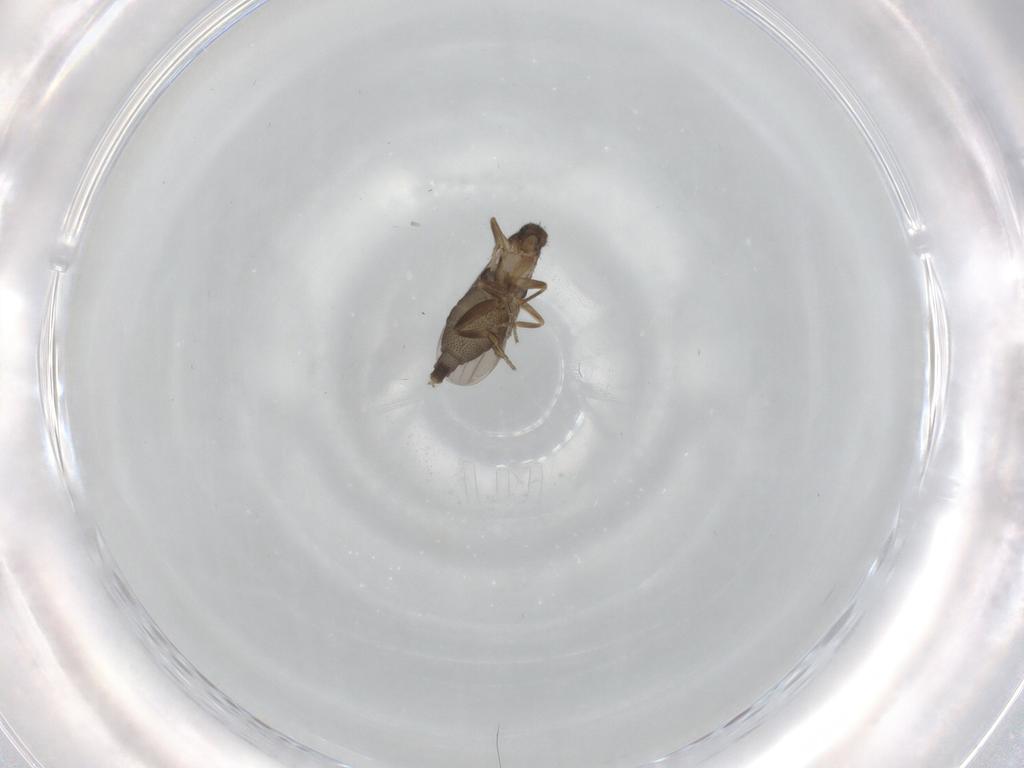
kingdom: Animalia
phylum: Arthropoda
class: Insecta
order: Diptera
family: Phoridae
